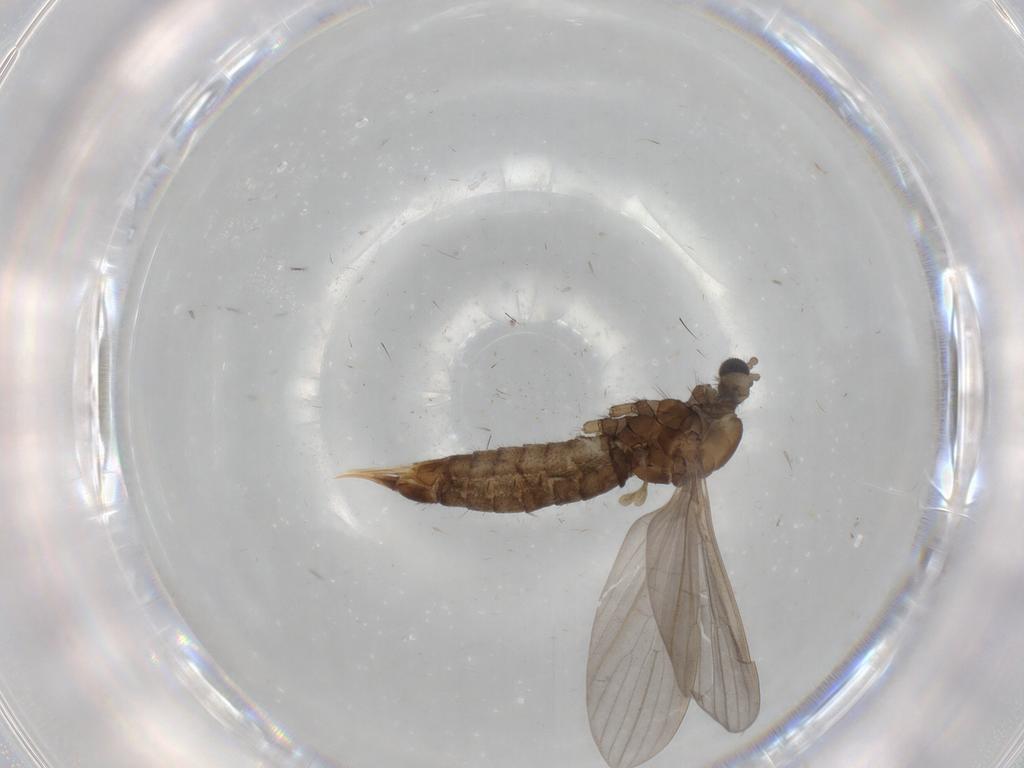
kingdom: Animalia
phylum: Arthropoda
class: Insecta
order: Diptera
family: Limoniidae
